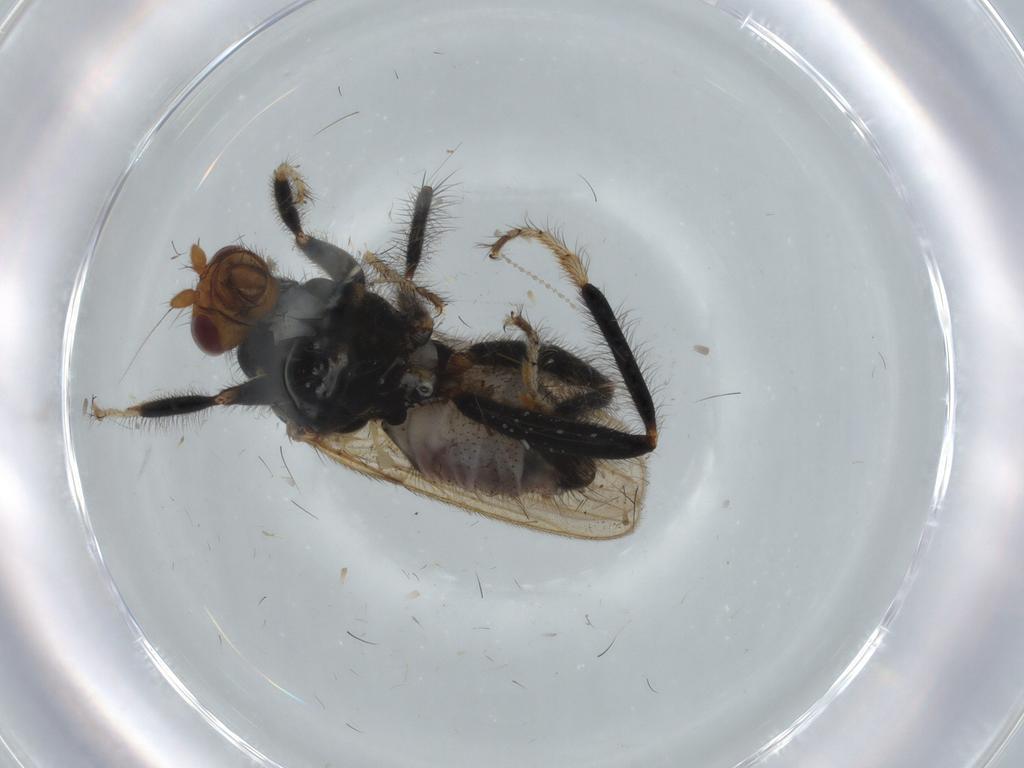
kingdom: Animalia
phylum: Arthropoda
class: Insecta
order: Diptera
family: Sphaeroceridae
